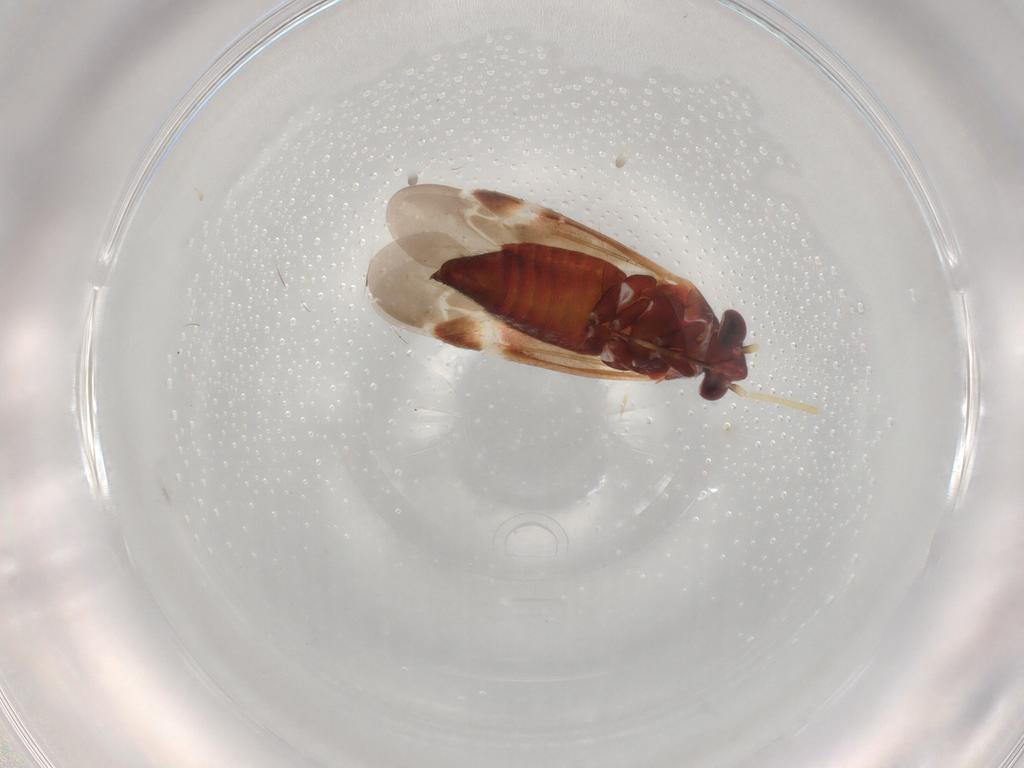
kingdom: Animalia
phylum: Arthropoda
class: Insecta
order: Hemiptera
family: Miridae
